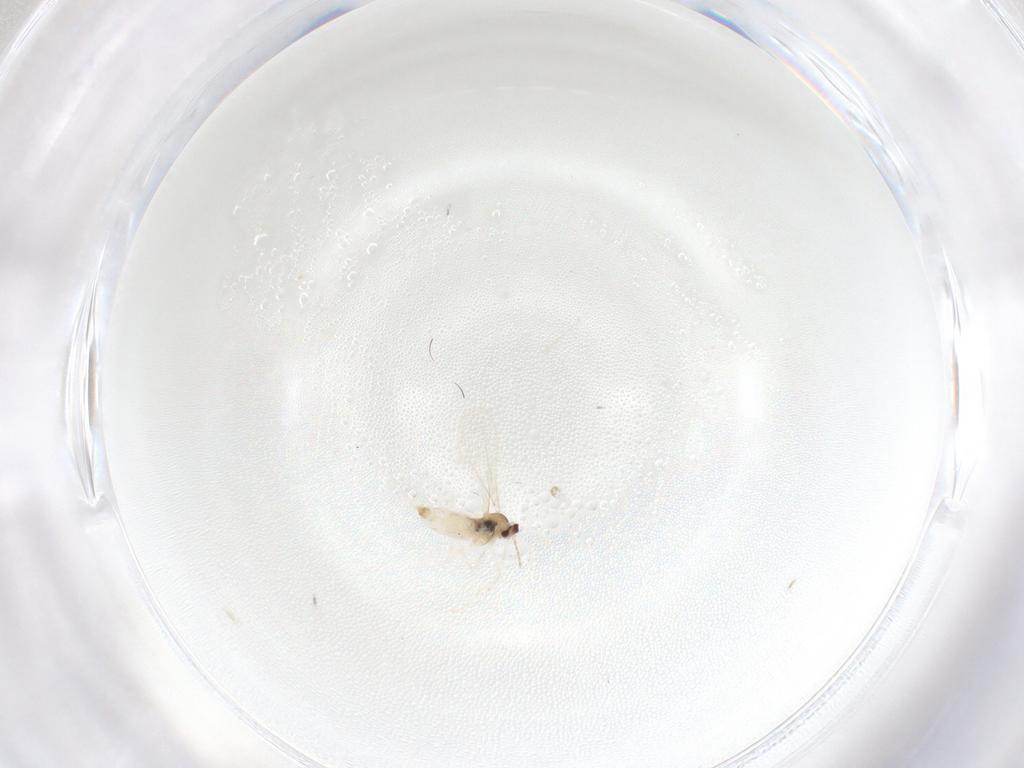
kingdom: Animalia
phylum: Arthropoda
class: Insecta
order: Diptera
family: Cecidomyiidae
